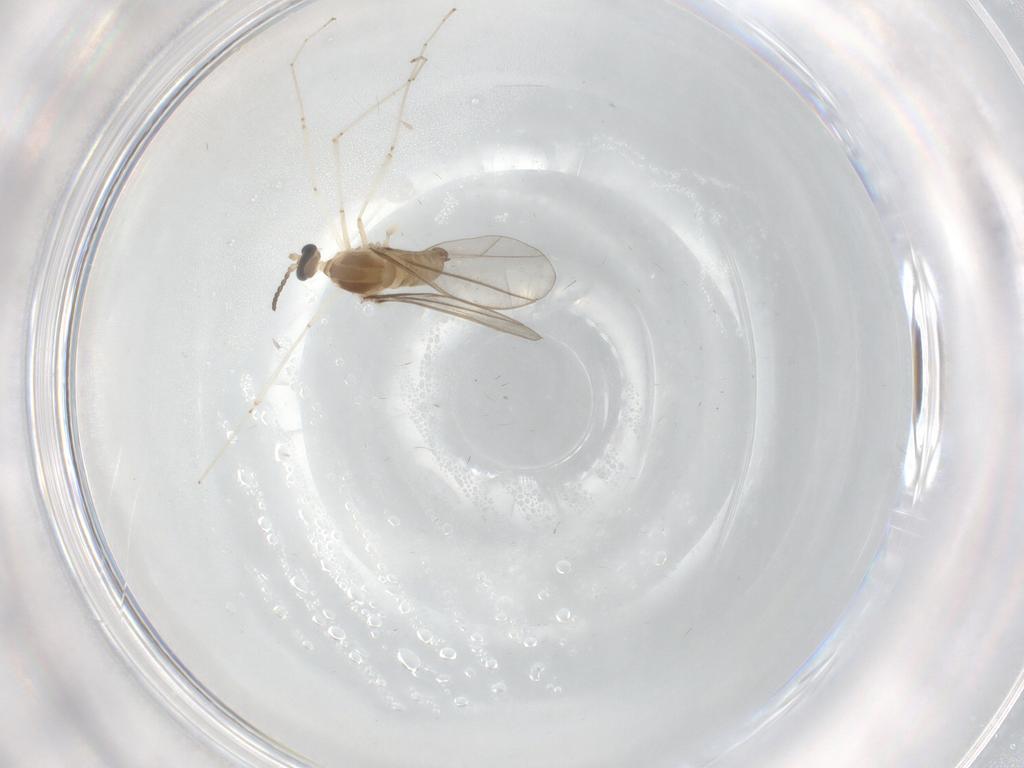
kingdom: Animalia
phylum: Arthropoda
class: Insecta
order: Diptera
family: Cecidomyiidae
